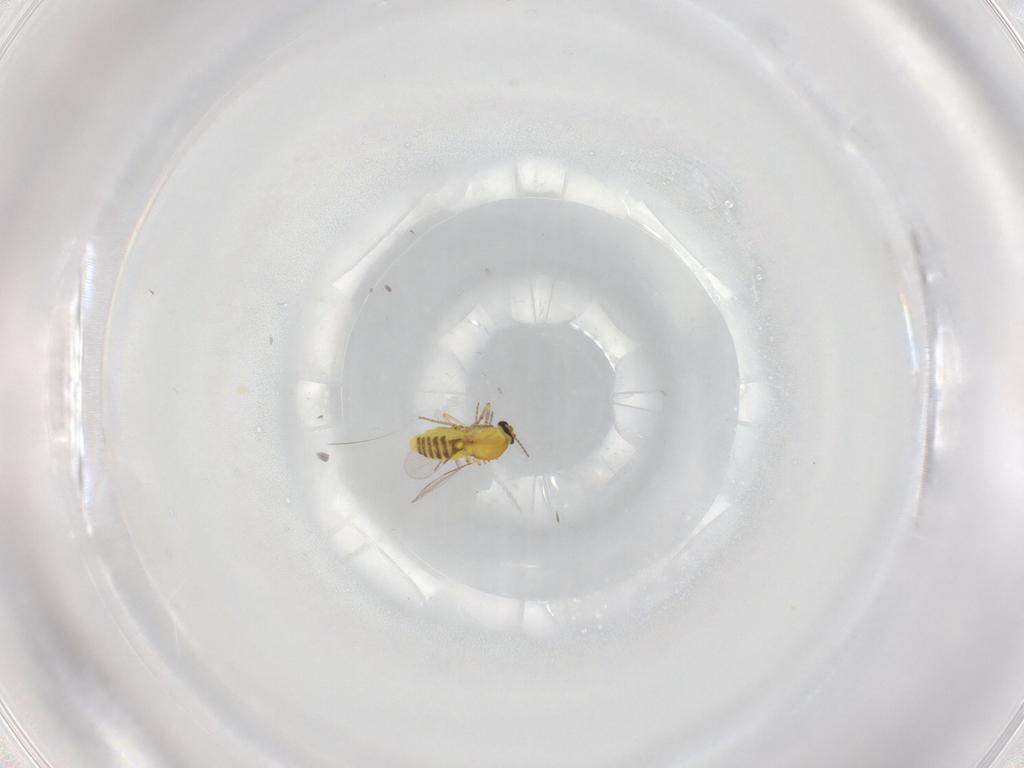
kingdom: Animalia
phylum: Arthropoda
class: Insecta
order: Diptera
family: Ceratopogonidae
